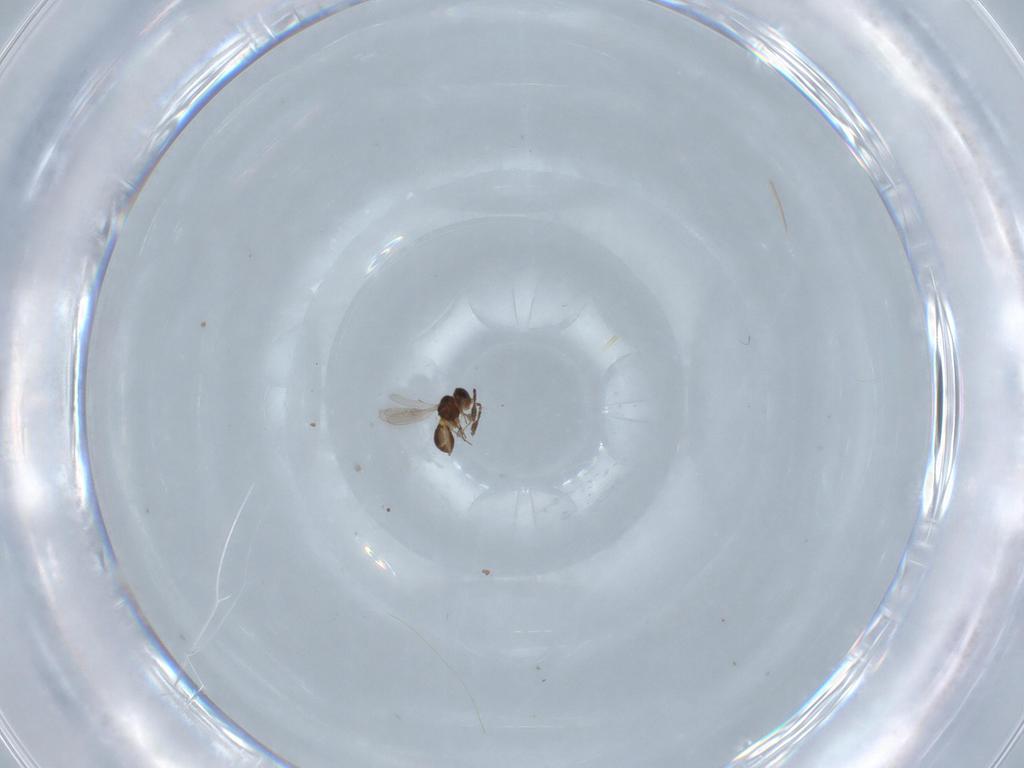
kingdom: Animalia
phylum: Arthropoda
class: Insecta
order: Hymenoptera
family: Scelionidae
